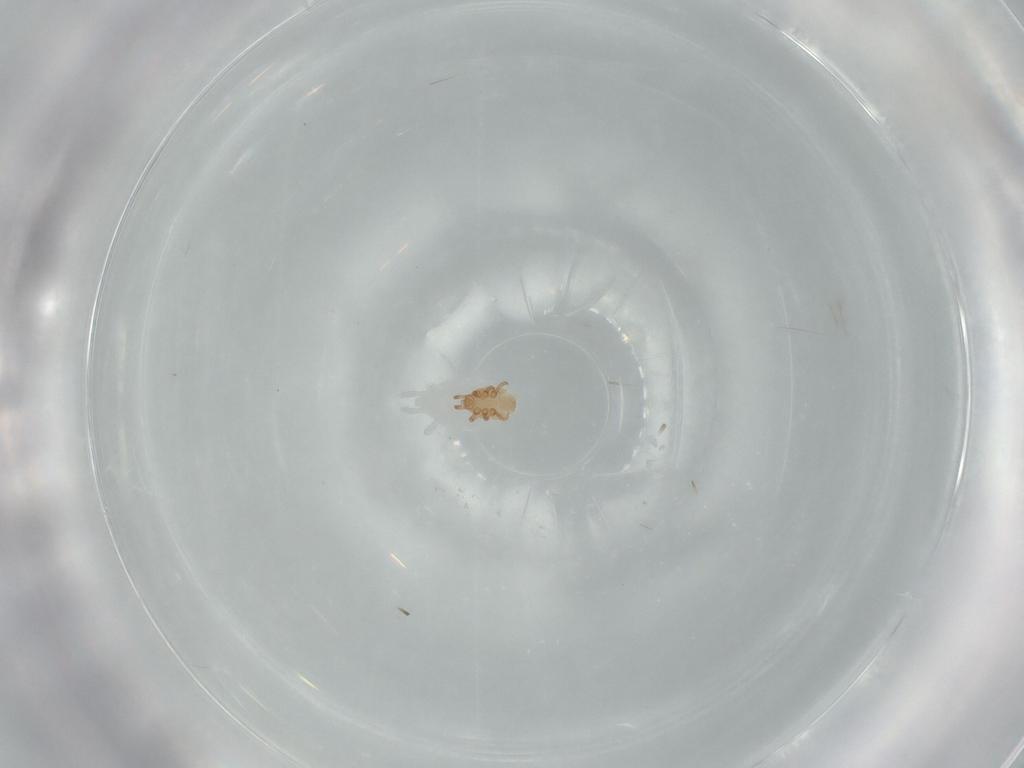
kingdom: Animalia
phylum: Arthropoda
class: Arachnida
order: Mesostigmata
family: Dinychidae
